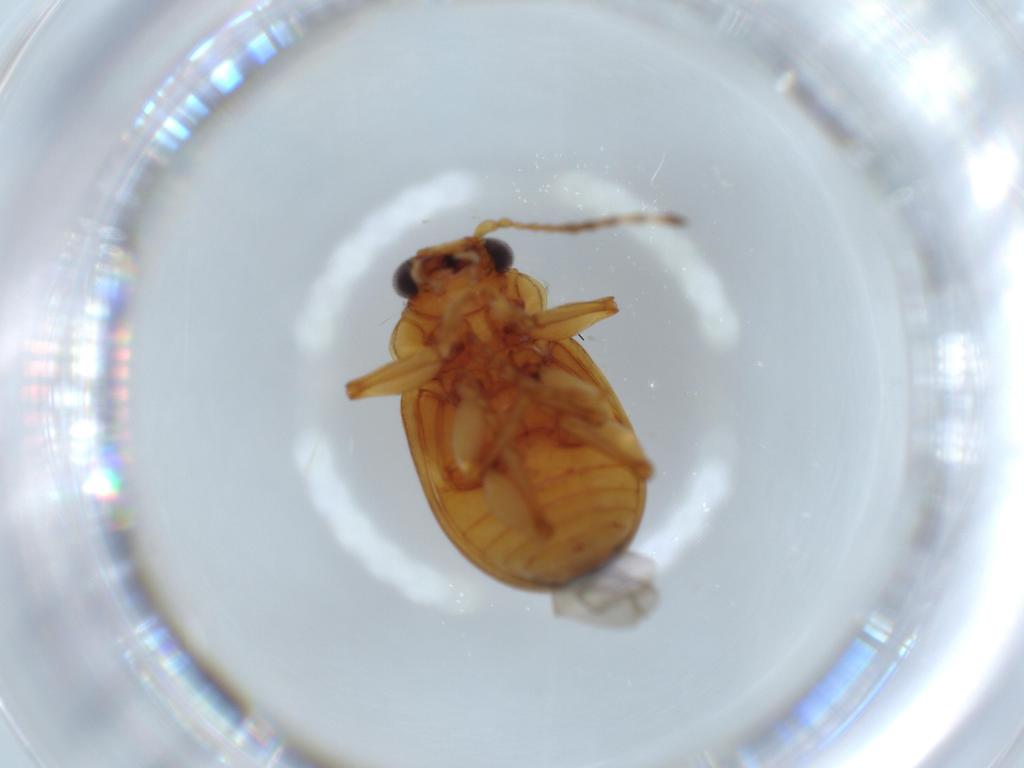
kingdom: Animalia
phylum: Arthropoda
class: Insecta
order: Coleoptera
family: Chrysomelidae
